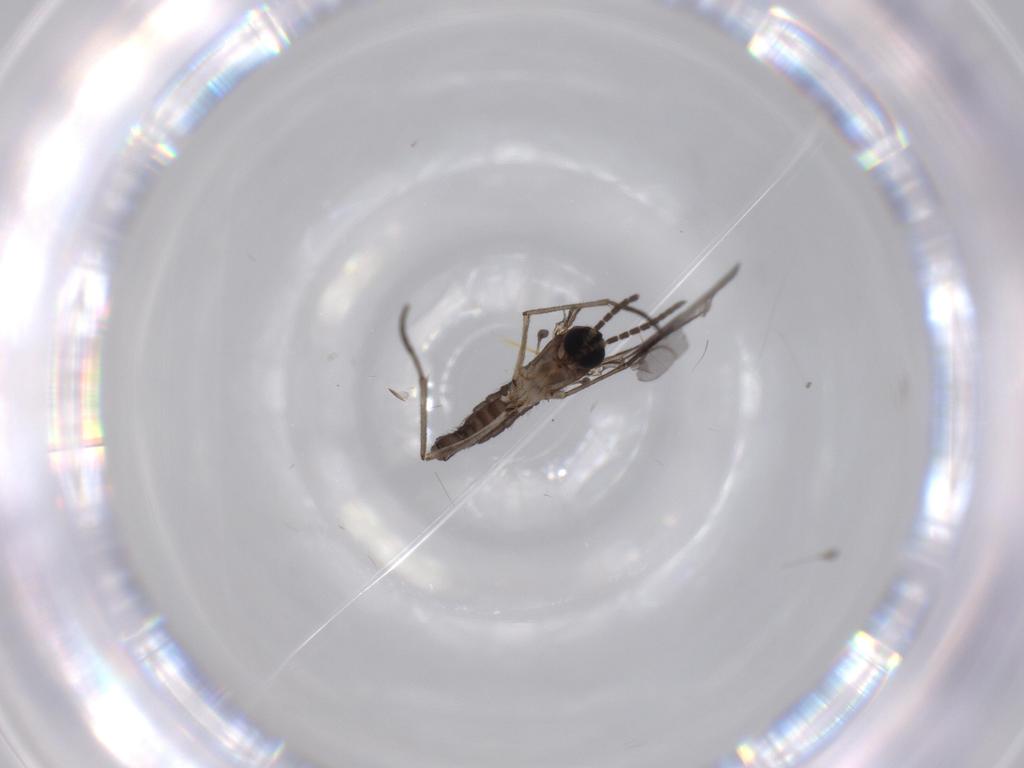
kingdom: Animalia
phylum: Arthropoda
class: Insecta
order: Diptera
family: Sciaridae
